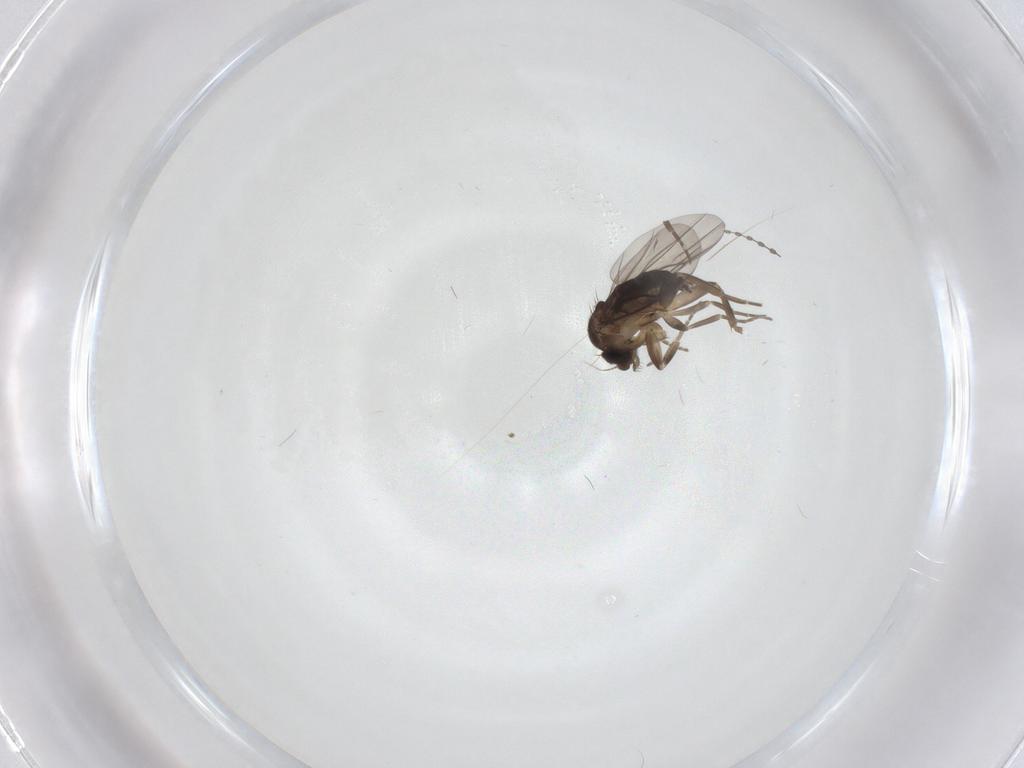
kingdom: Animalia
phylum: Arthropoda
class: Insecta
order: Diptera
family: Phoridae
